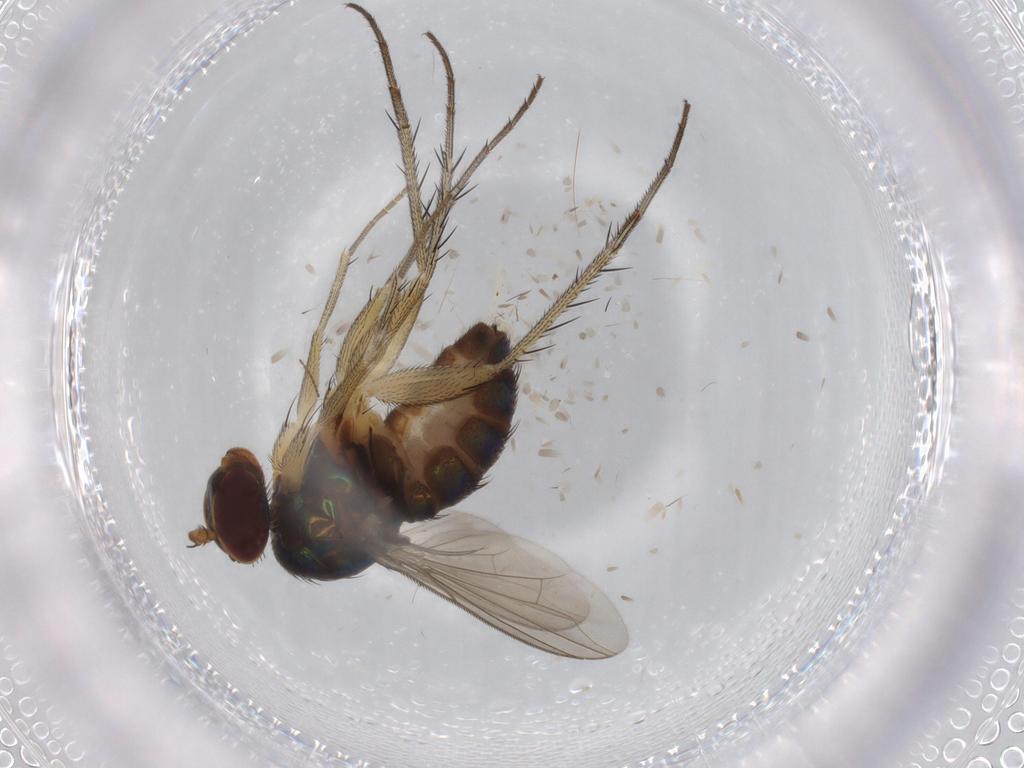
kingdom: Animalia
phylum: Arthropoda
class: Insecta
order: Diptera
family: Dolichopodidae
